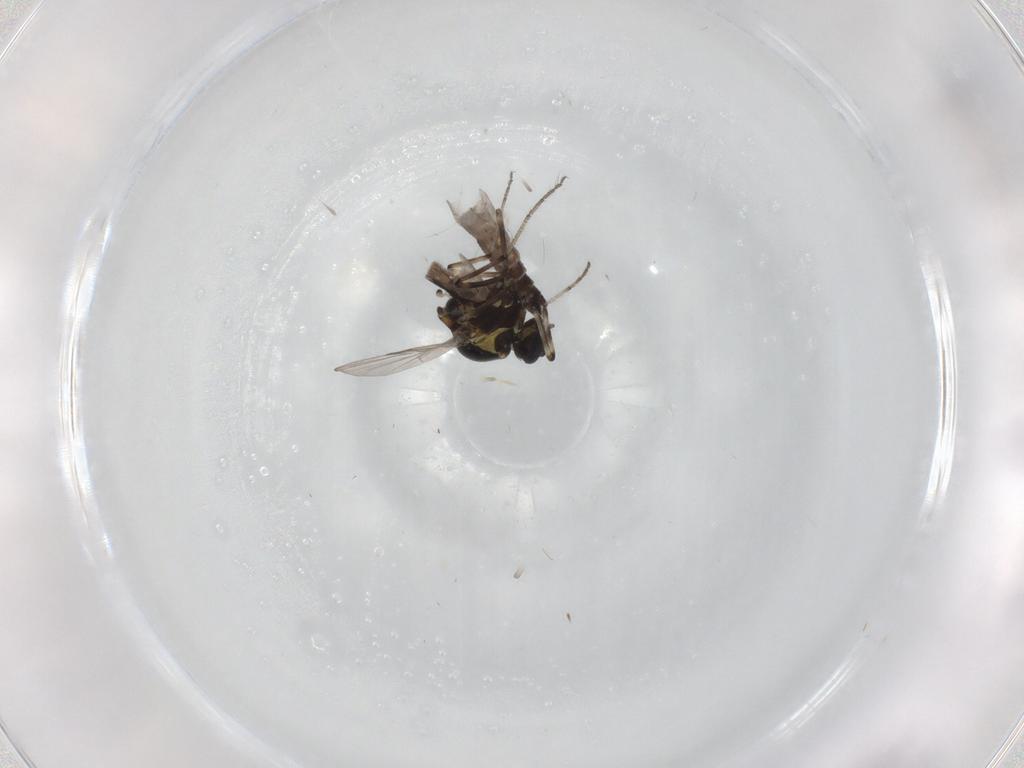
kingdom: Animalia
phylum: Arthropoda
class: Insecta
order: Diptera
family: Ceratopogonidae
